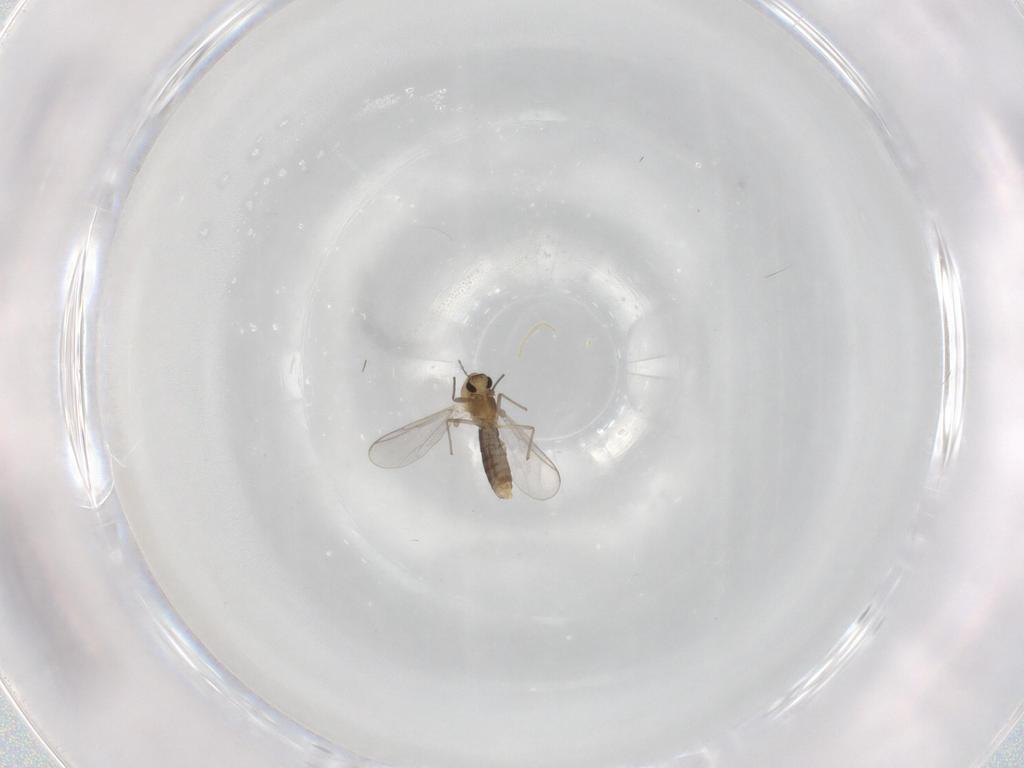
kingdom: Animalia
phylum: Arthropoda
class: Insecta
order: Diptera
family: Chironomidae
